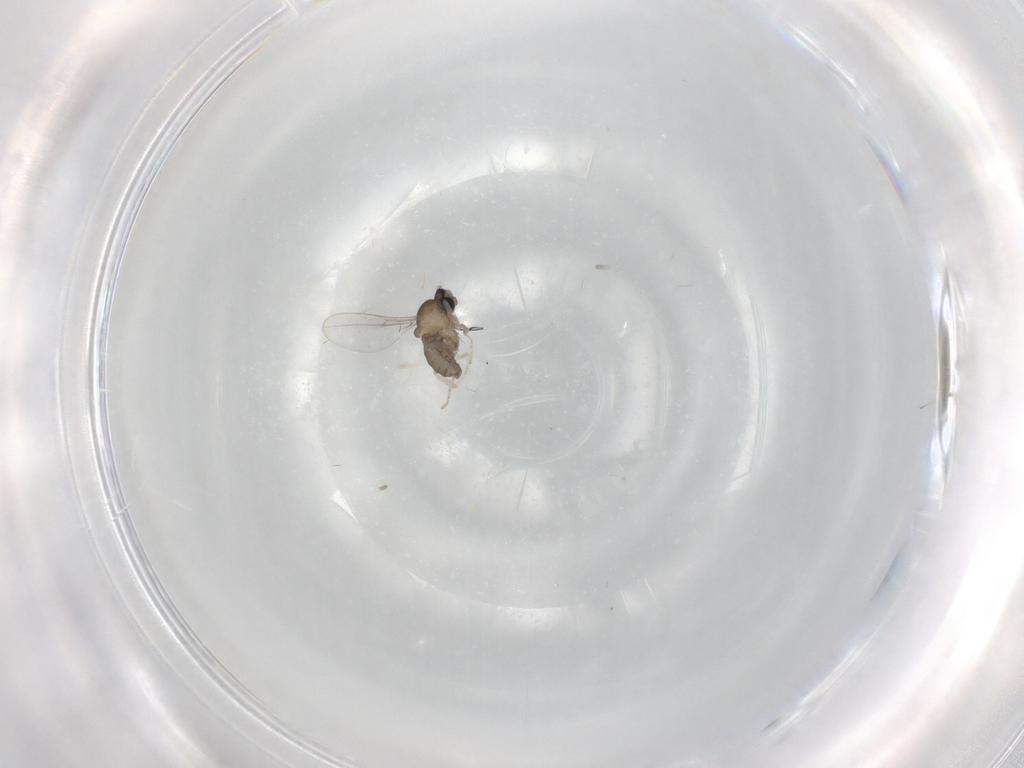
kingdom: Animalia
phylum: Arthropoda
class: Insecta
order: Diptera
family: Cecidomyiidae
